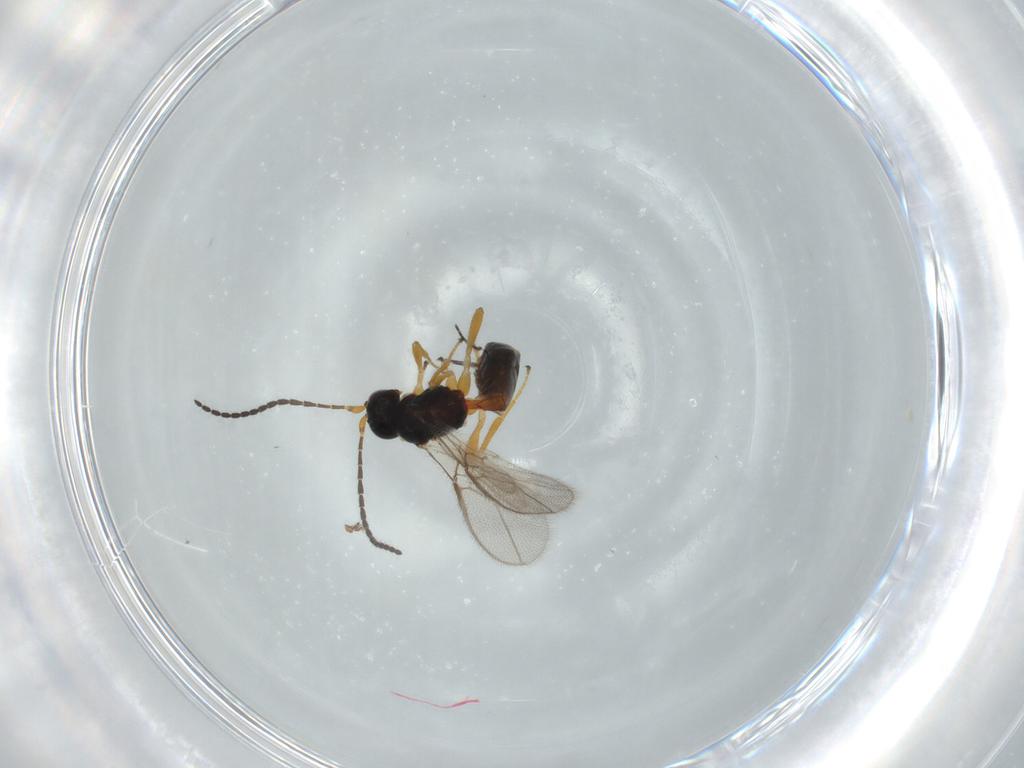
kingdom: Animalia
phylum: Arthropoda
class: Insecta
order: Hymenoptera
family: Braconidae
